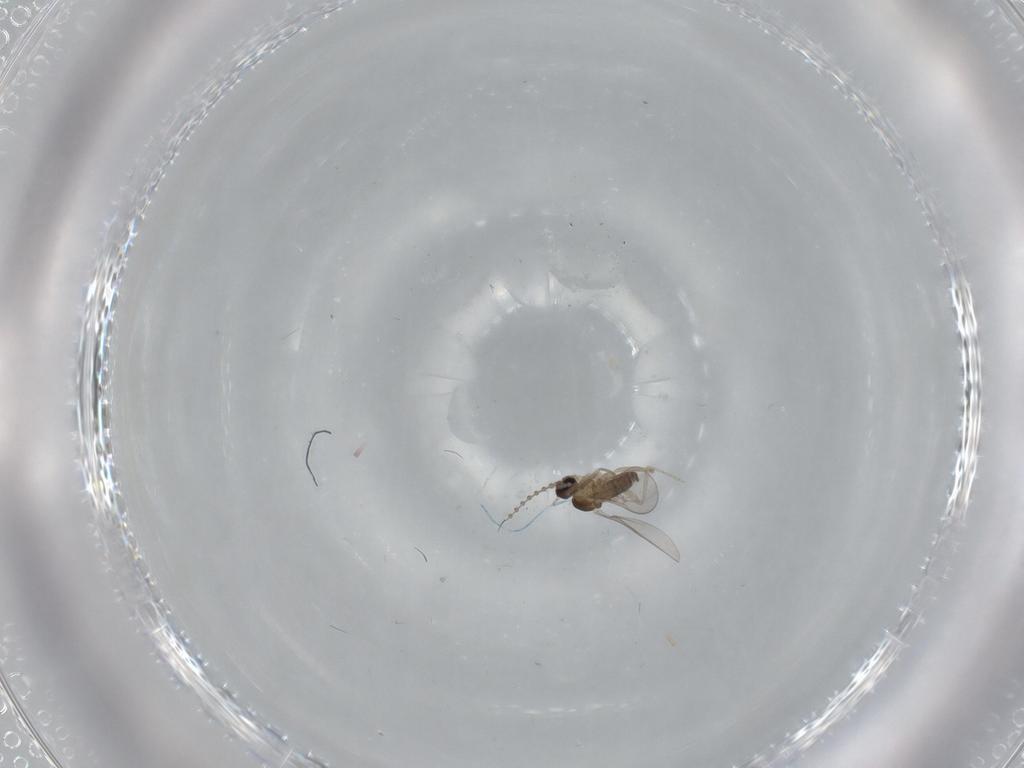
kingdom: Animalia
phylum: Arthropoda
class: Insecta
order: Diptera
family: Cecidomyiidae
